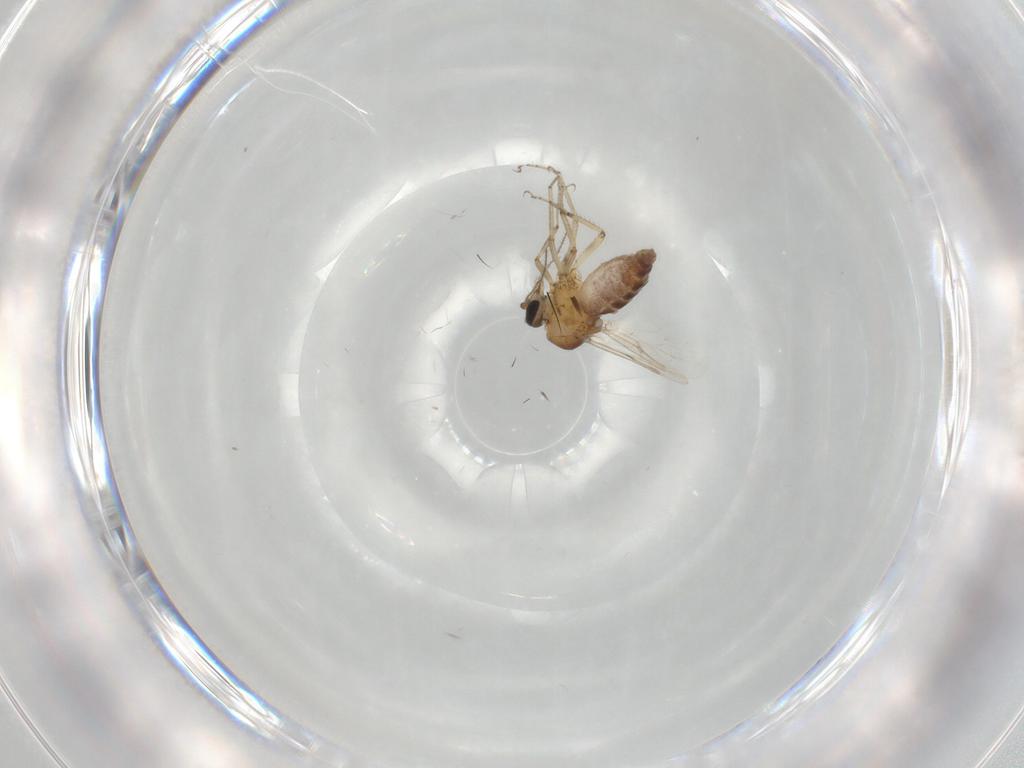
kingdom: Animalia
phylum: Arthropoda
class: Insecta
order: Diptera
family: Ceratopogonidae
